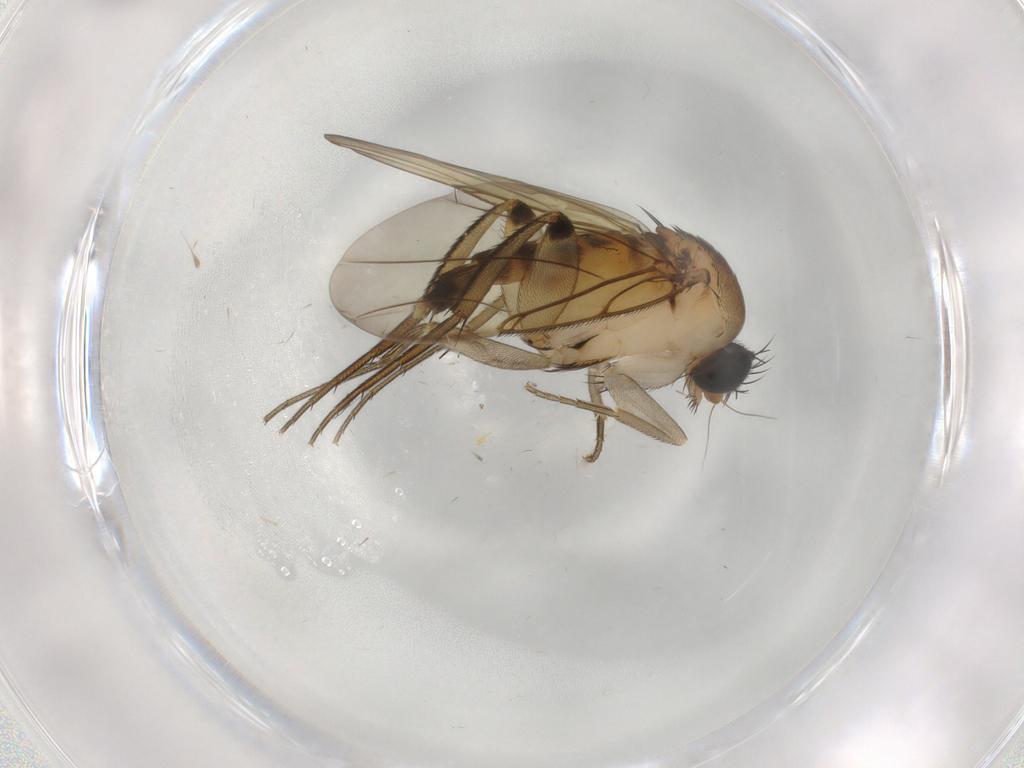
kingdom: Animalia
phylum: Arthropoda
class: Insecta
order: Diptera
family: Phoridae
